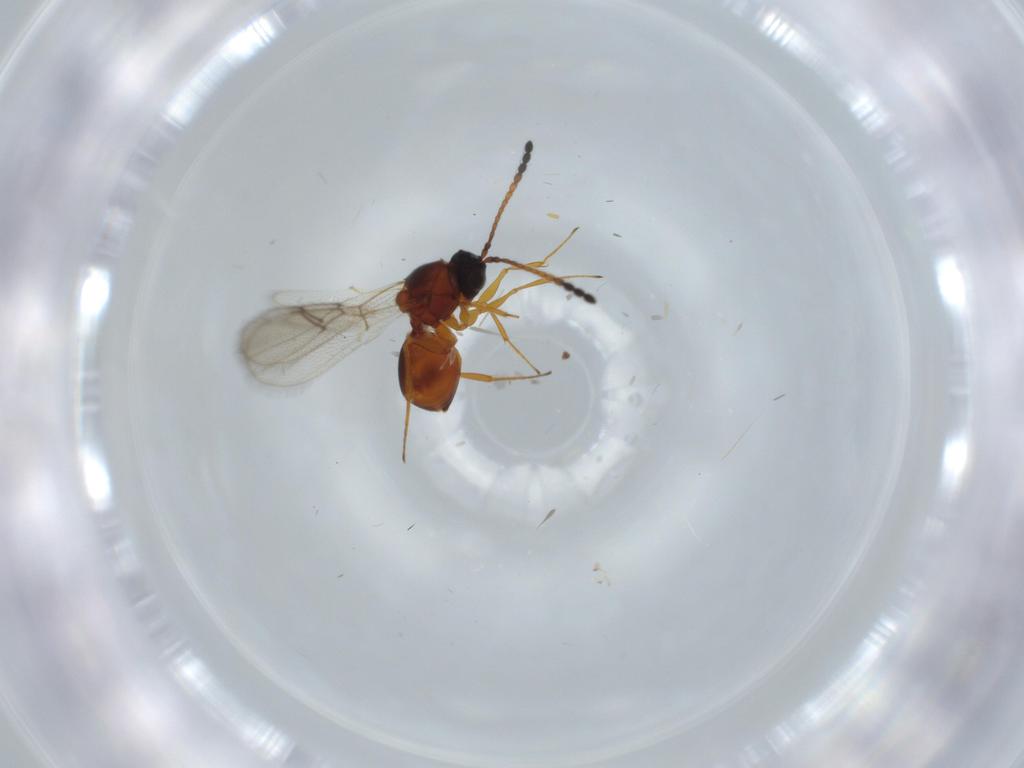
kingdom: Animalia
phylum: Arthropoda
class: Insecta
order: Hymenoptera
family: Figitidae
